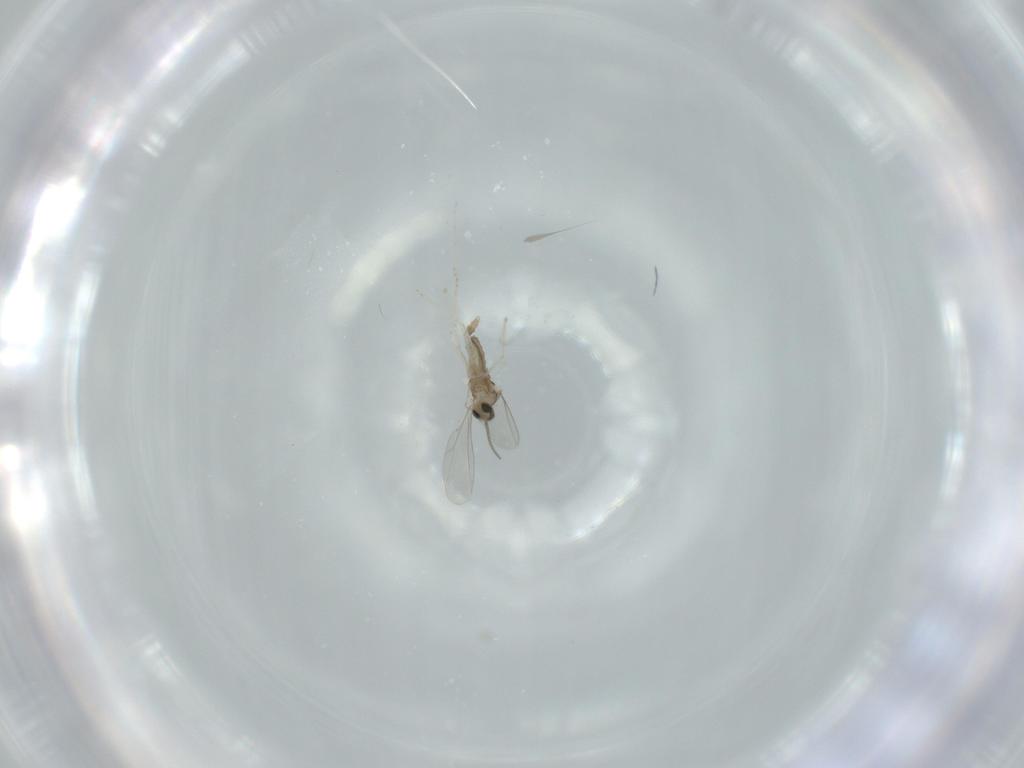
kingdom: Animalia
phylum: Arthropoda
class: Insecta
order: Diptera
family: Cecidomyiidae
